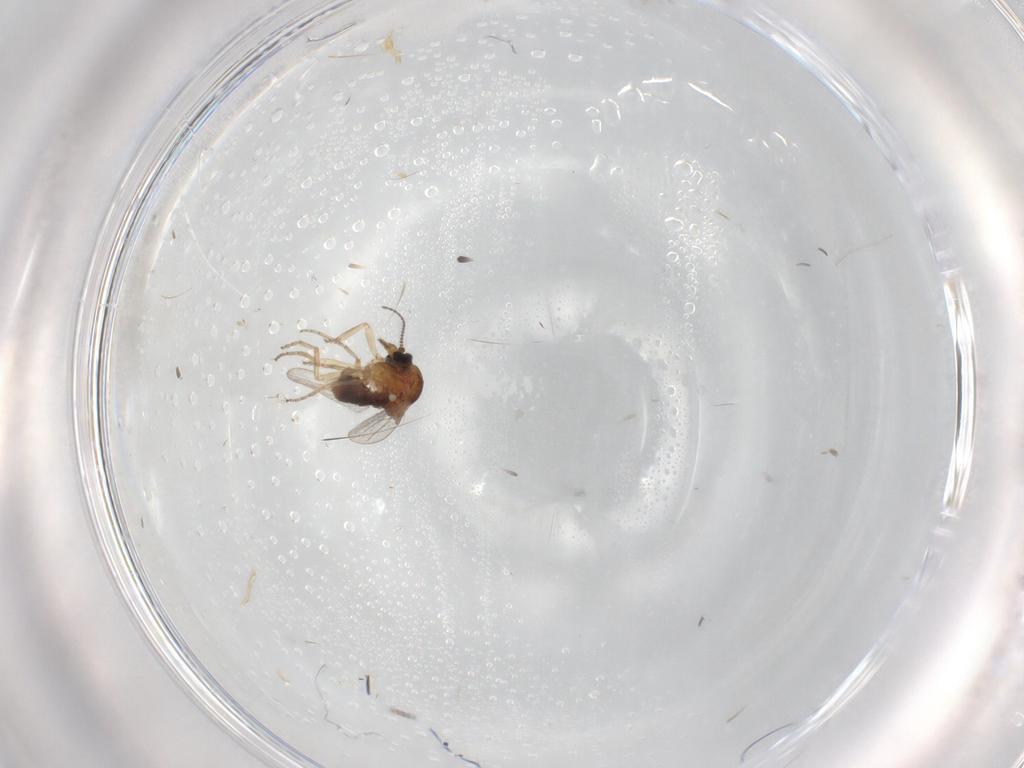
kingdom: Animalia
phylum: Arthropoda
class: Insecta
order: Diptera
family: Ceratopogonidae
